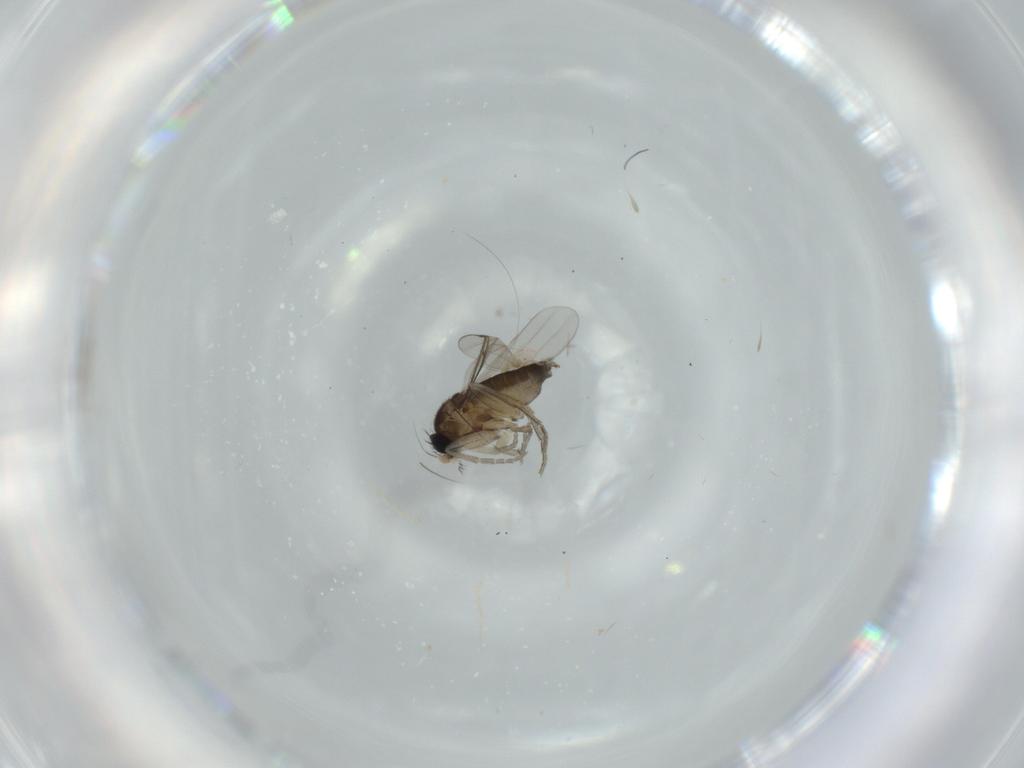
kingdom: Animalia
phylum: Arthropoda
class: Insecta
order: Diptera
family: Phoridae
